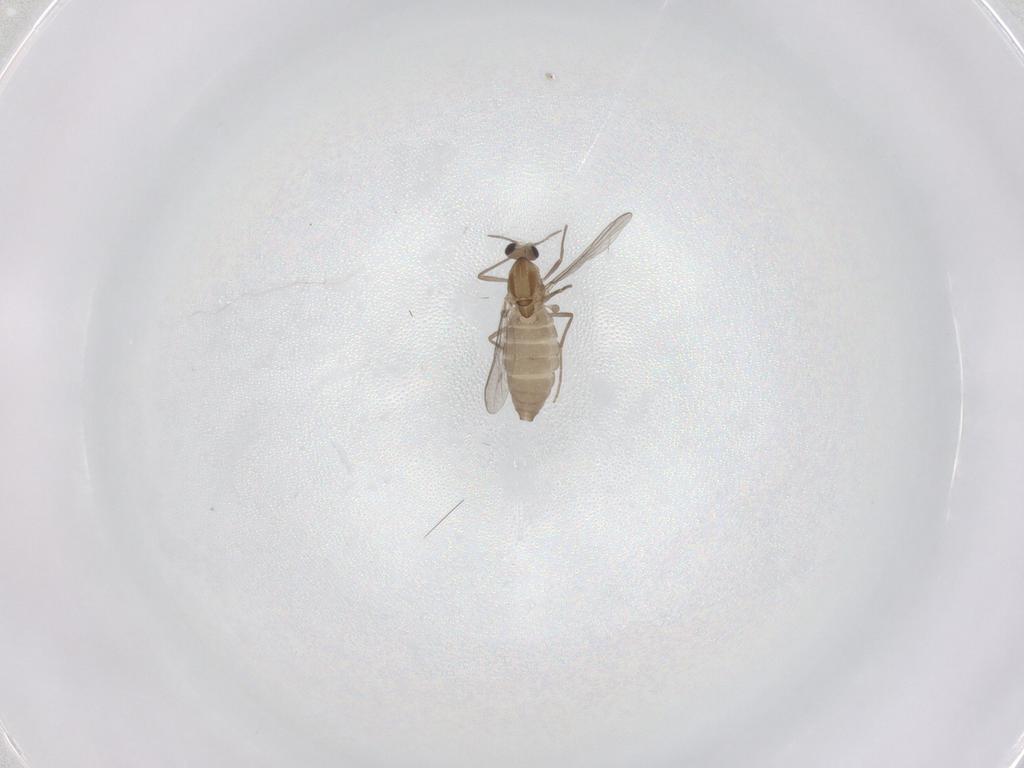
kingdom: Animalia
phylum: Arthropoda
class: Insecta
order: Diptera
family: Chironomidae
